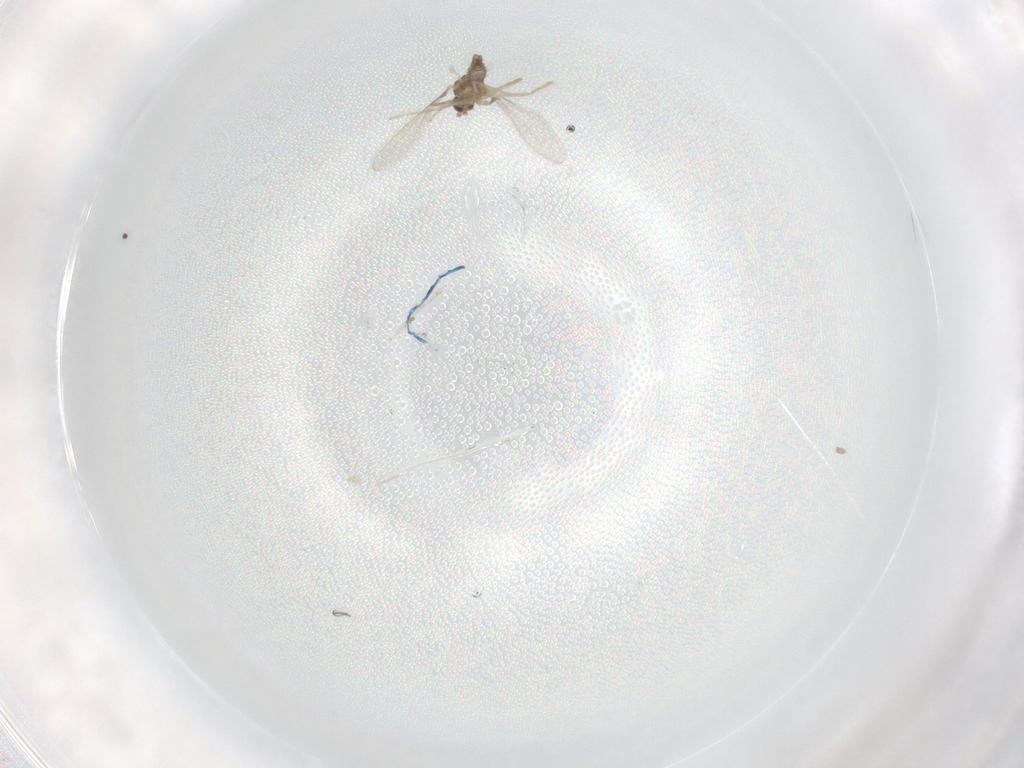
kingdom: Animalia
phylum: Arthropoda
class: Insecta
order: Diptera
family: Cecidomyiidae
